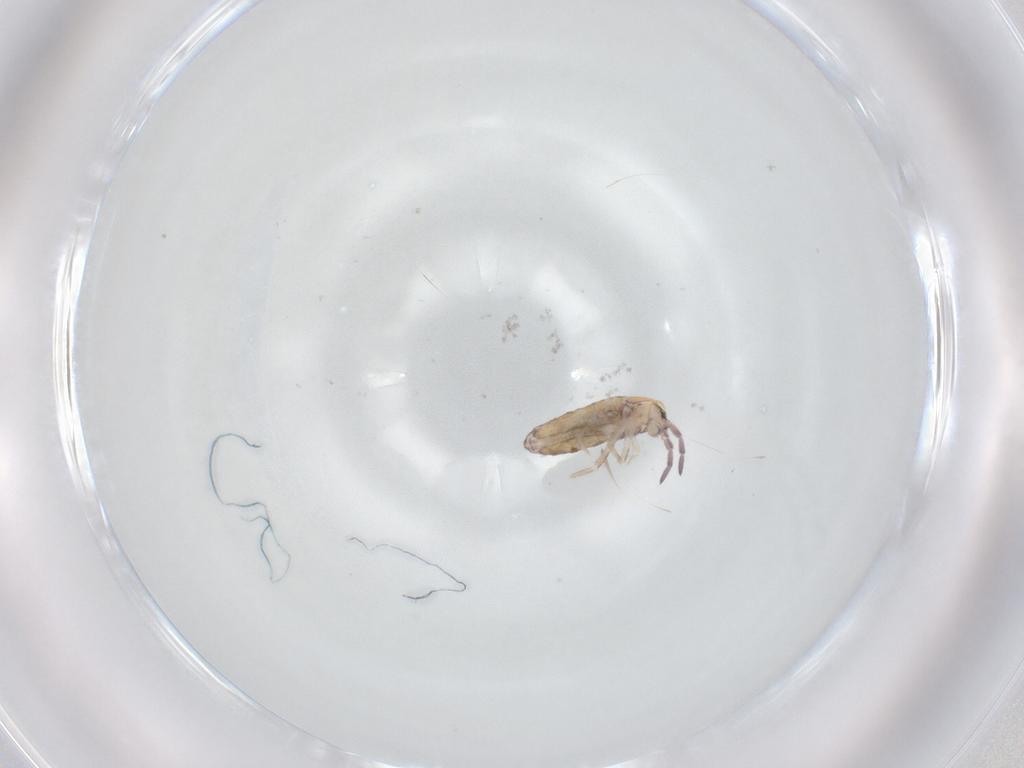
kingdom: Animalia
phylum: Arthropoda
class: Collembola
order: Entomobryomorpha
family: Entomobryidae
